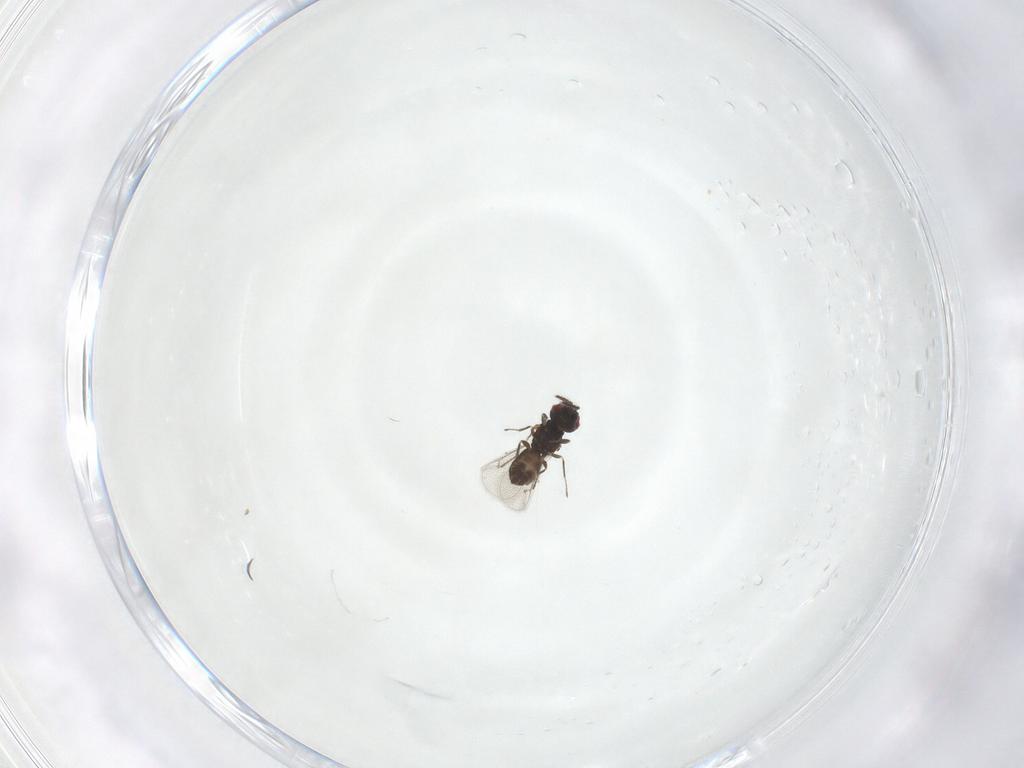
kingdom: Animalia
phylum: Arthropoda
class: Insecta
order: Hymenoptera
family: Eulophidae
